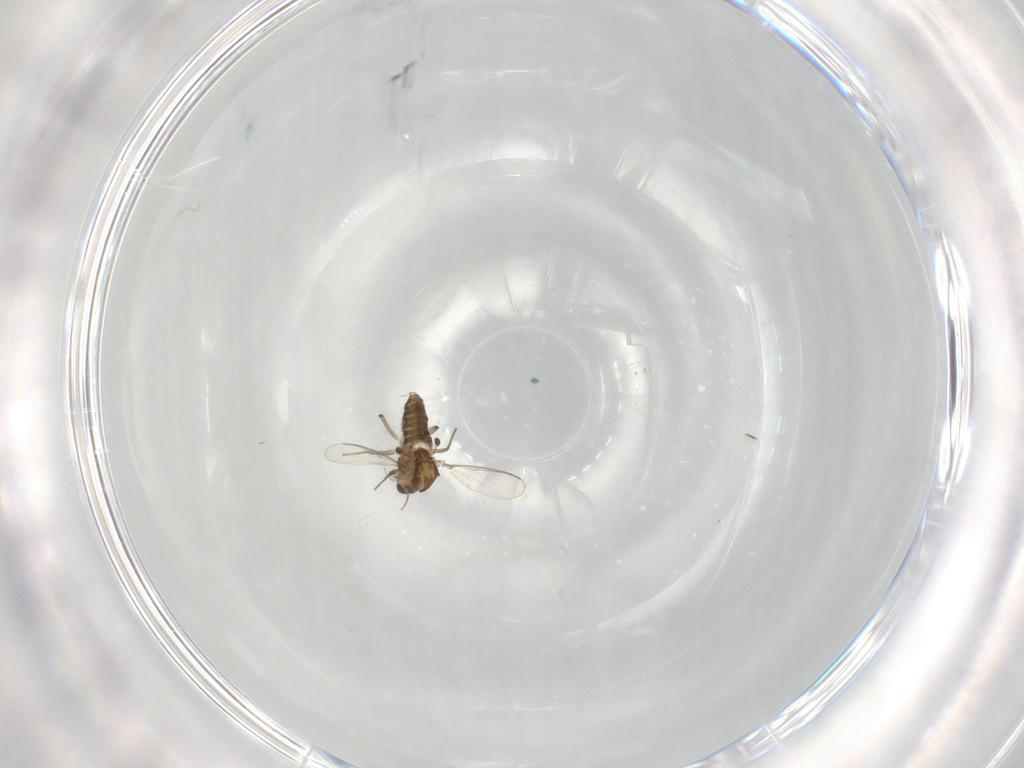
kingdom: Animalia
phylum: Arthropoda
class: Insecta
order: Diptera
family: Chironomidae
